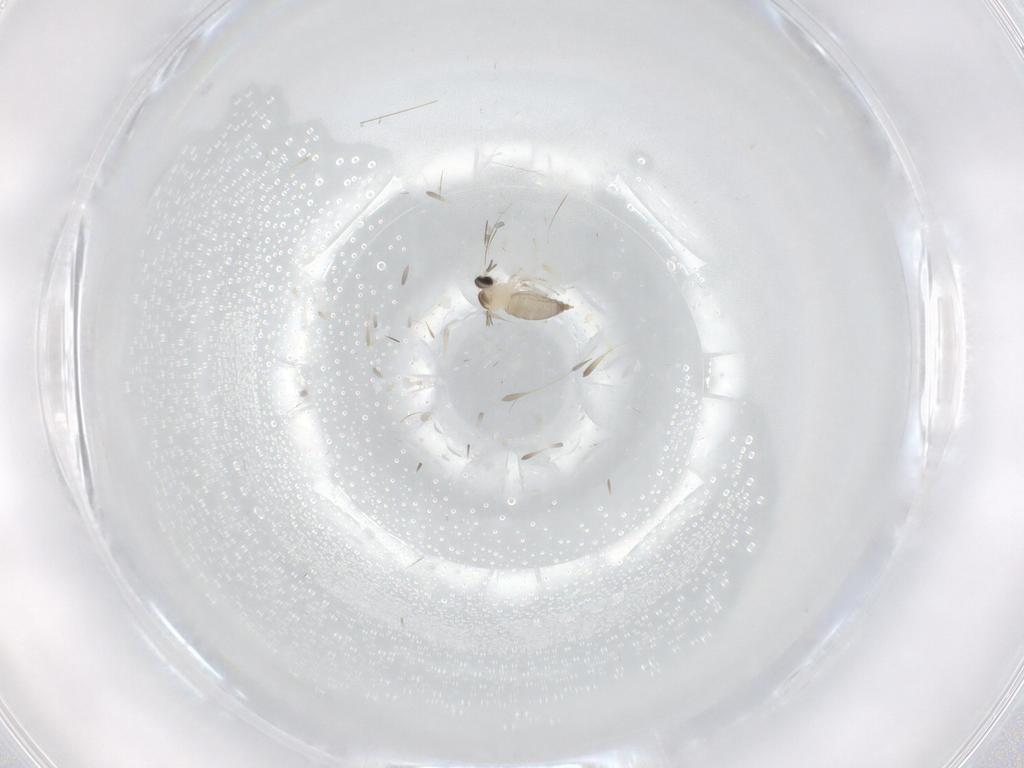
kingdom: Animalia
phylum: Arthropoda
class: Insecta
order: Diptera
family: Cecidomyiidae
